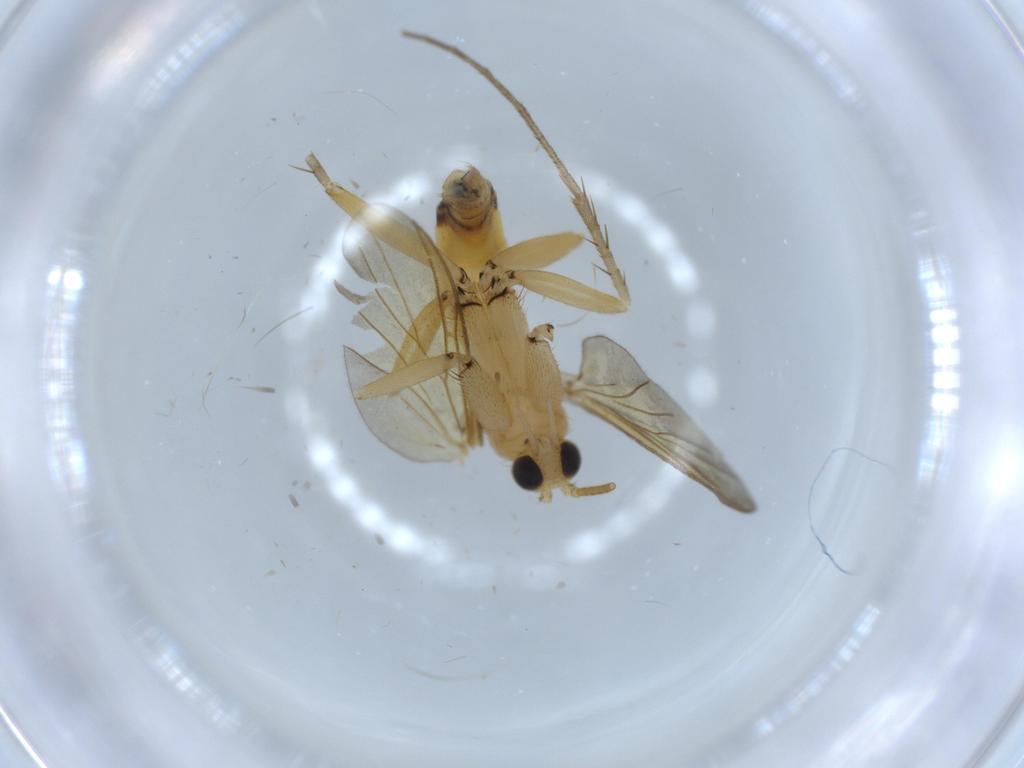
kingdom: Animalia
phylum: Arthropoda
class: Insecta
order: Diptera
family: Mycetophilidae
